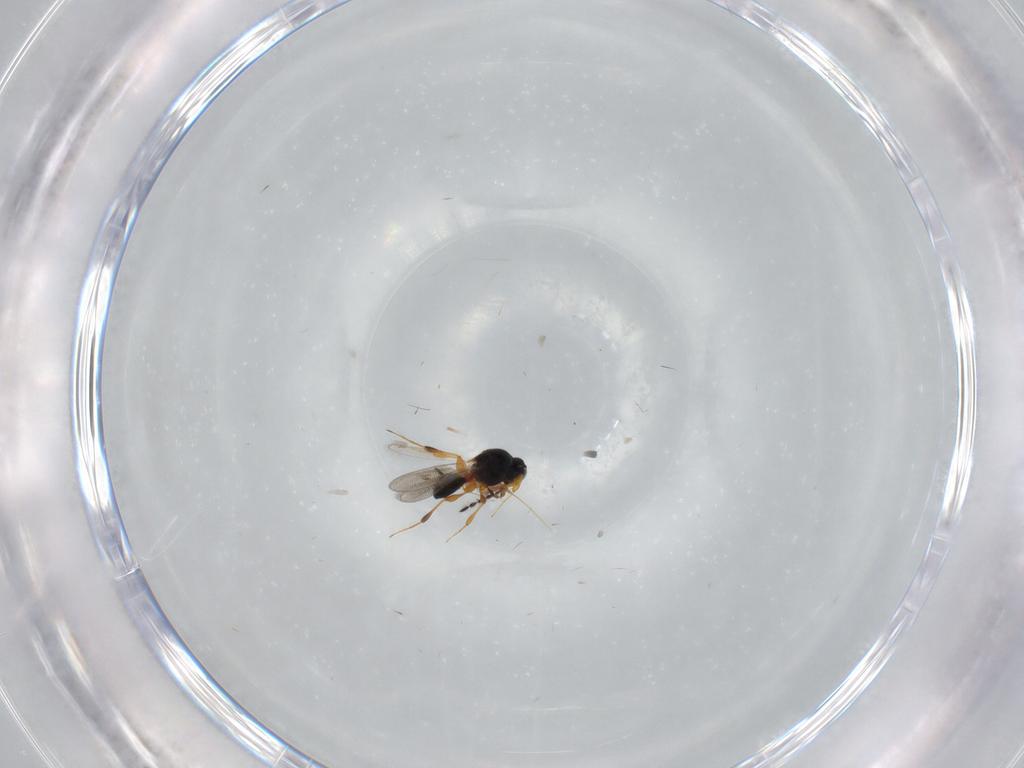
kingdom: Animalia
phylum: Arthropoda
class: Insecta
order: Hymenoptera
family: Platygastridae
